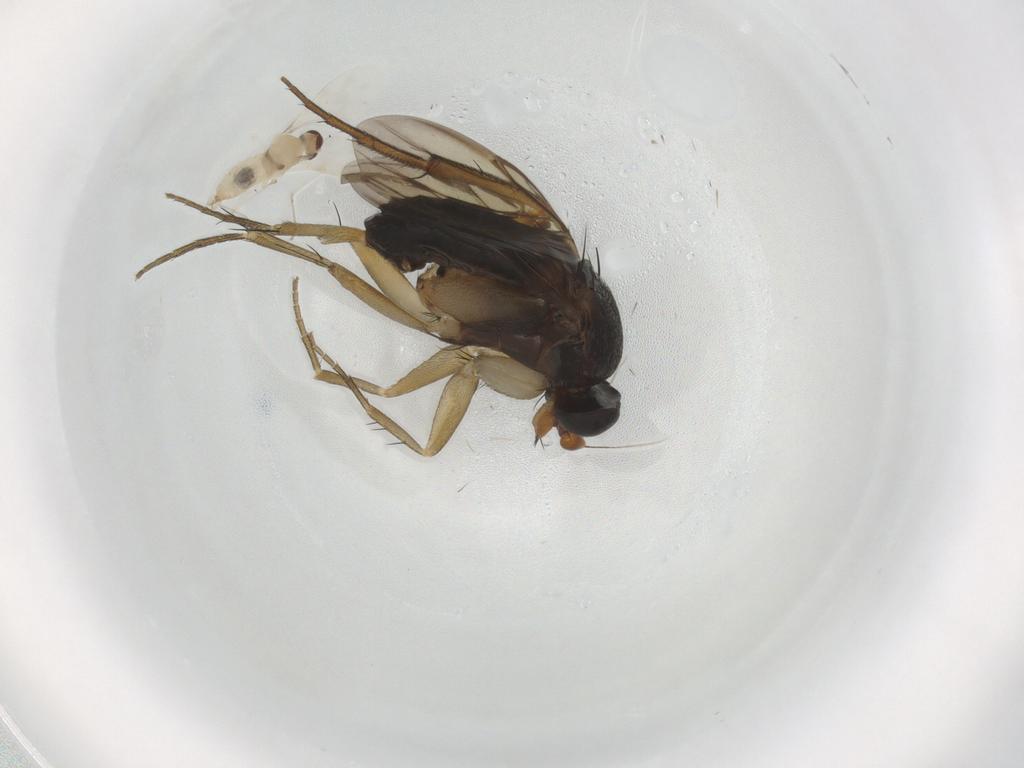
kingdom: Animalia
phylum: Arthropoda
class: Insecta
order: Diptera
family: Phoridae
